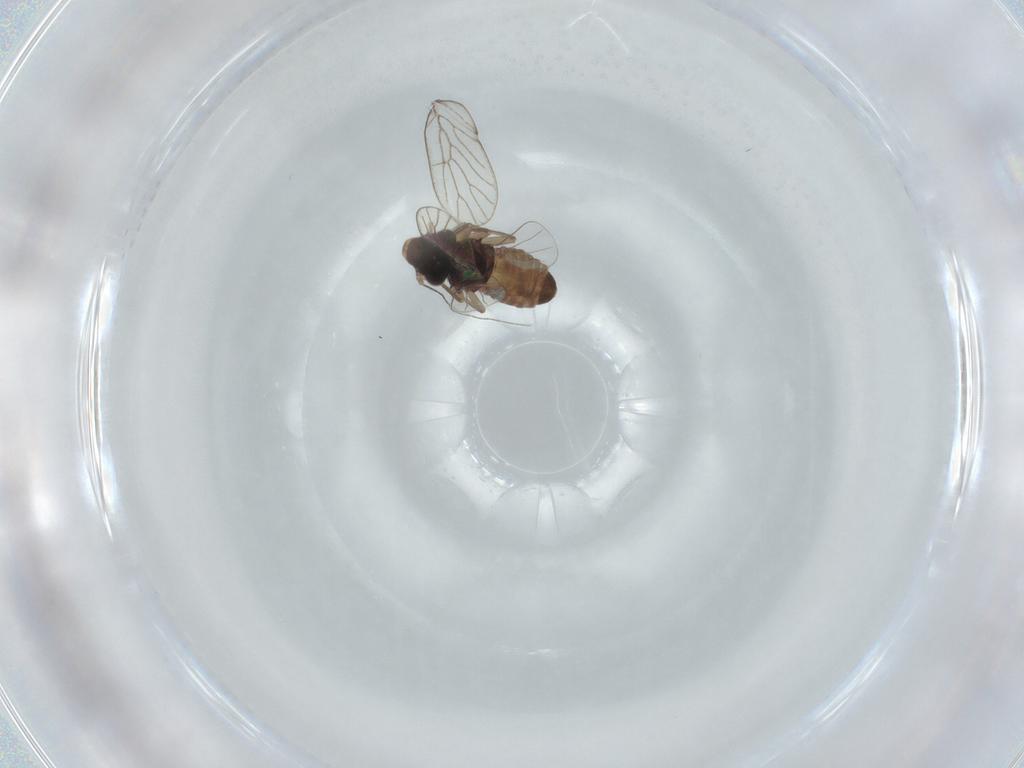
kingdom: Animalia
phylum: Arthropoda
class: Insecta
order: Psocodea
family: Psoquillidae
